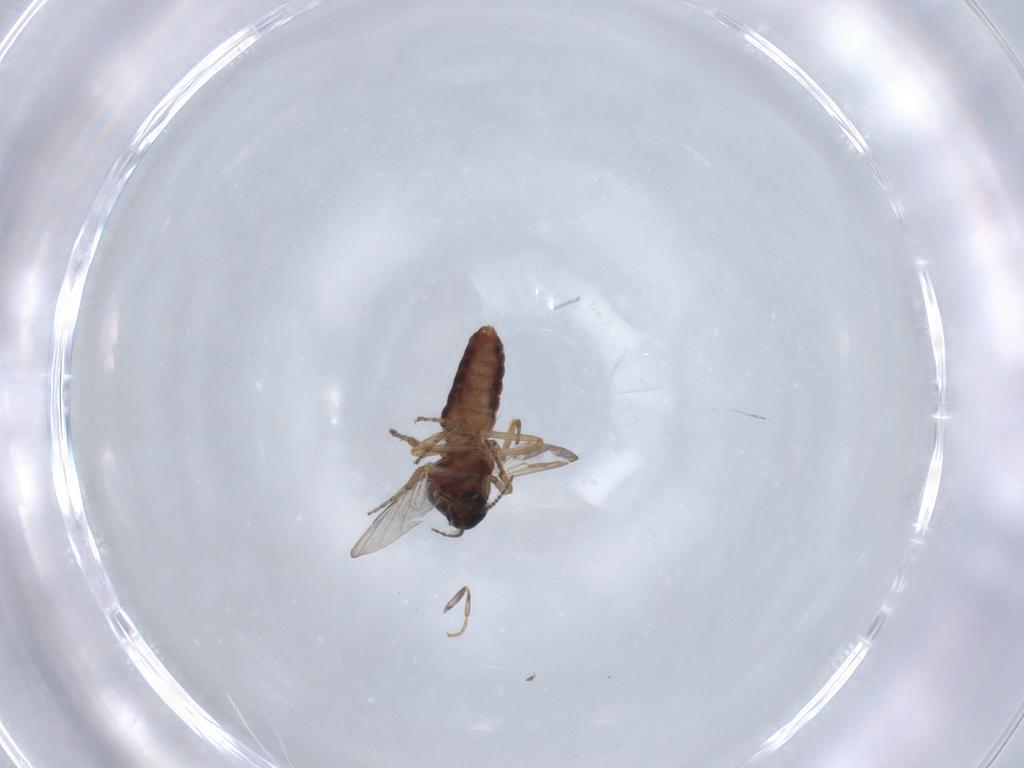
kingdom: Animalia
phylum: Arthropoda
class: Insecta
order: Diptera
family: Ceratopogonidae
